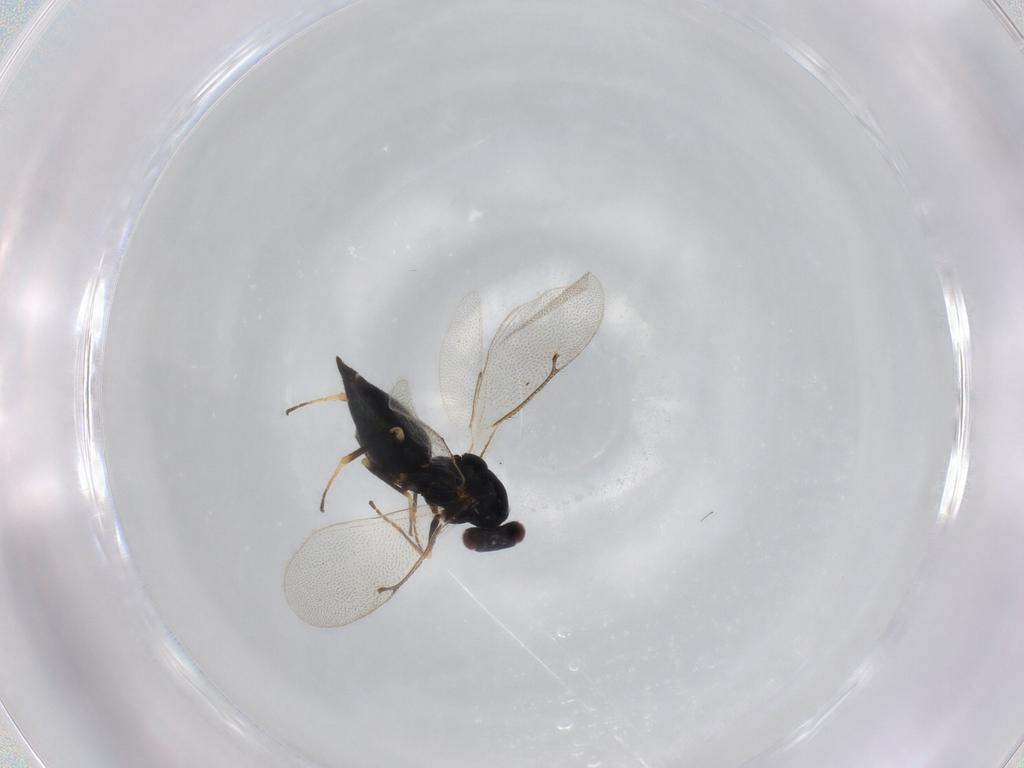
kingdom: Animalia
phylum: Arthropoda
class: Insecta
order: Hymenoptera
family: Eulophidae
